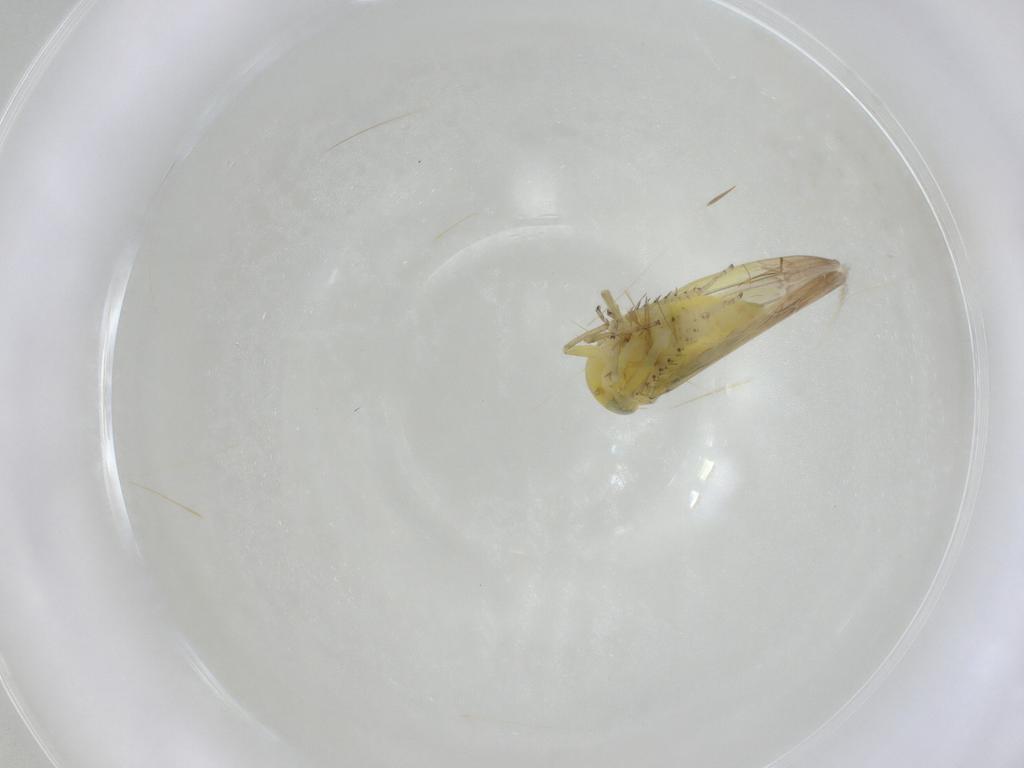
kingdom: Animalia
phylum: Arthropoda
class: Insecta
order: Hemiptera
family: Cicadellidae
